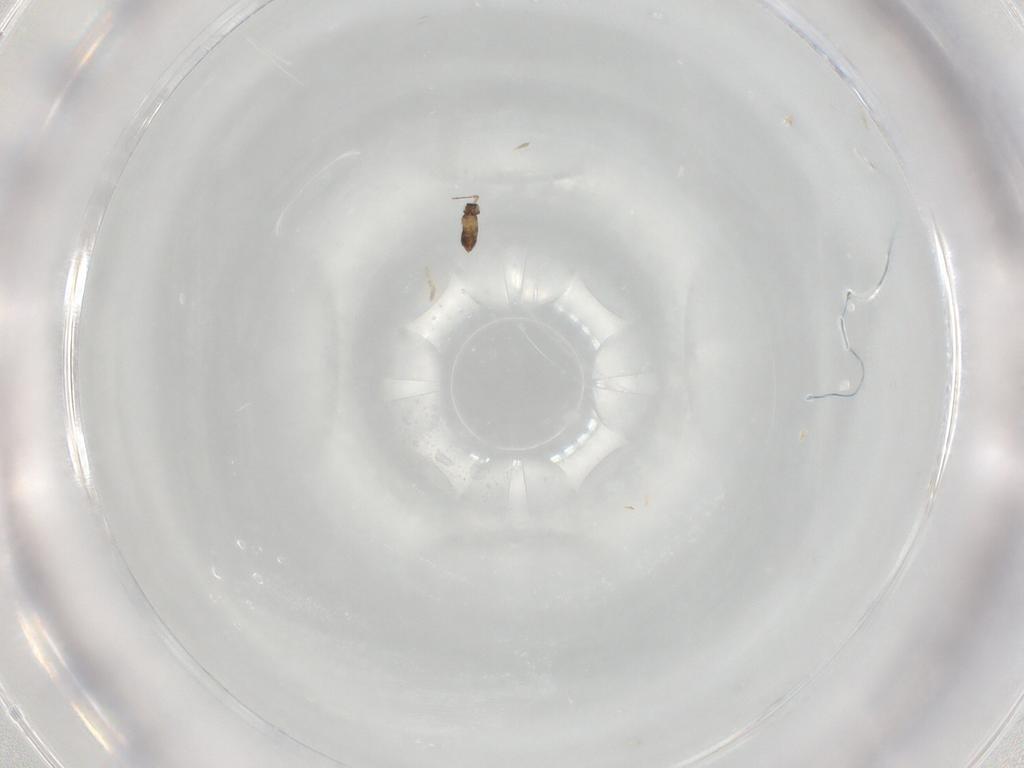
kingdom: Animalia
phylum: Arthropoda
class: Insecta
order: Hymenoptera
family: Mymaridae
